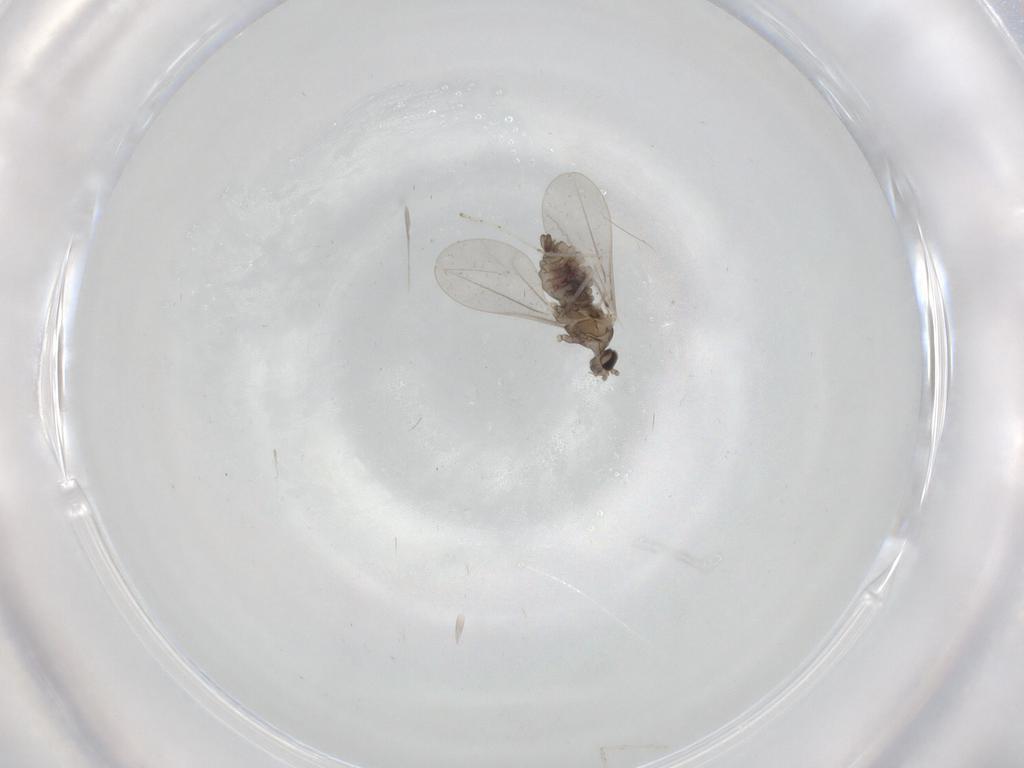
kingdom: Animalia
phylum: Arthropoda
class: Insecta
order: Diptera
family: Cecidomyiidae
